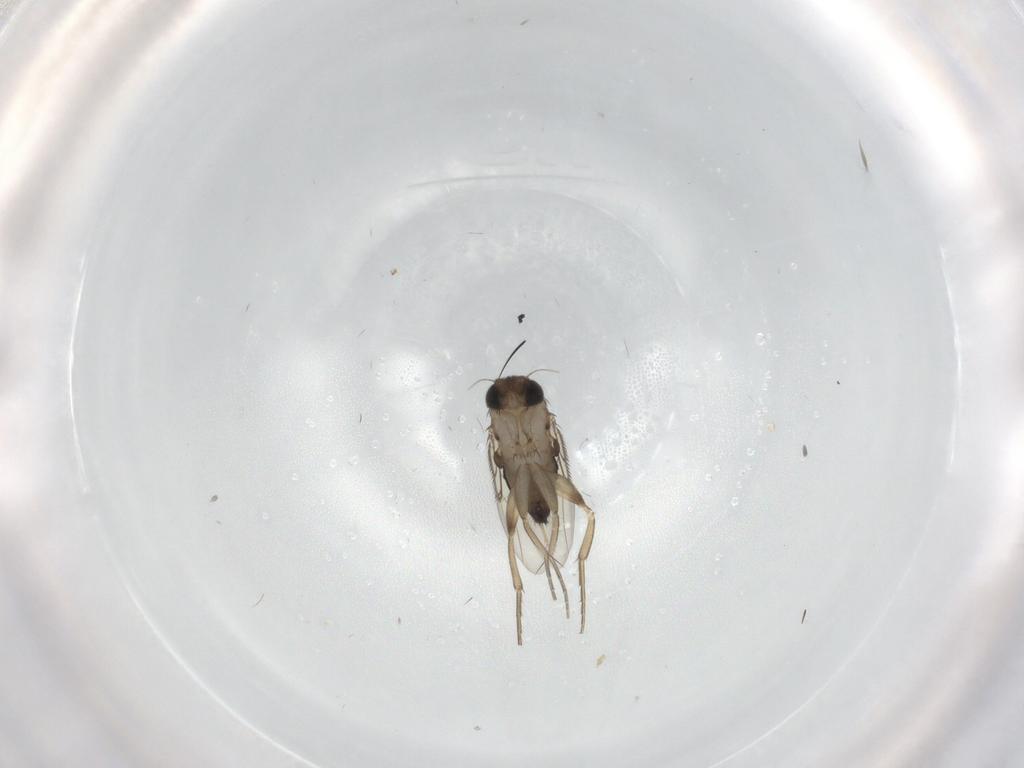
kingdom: Animalia
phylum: Arthropoda
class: Insecta
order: Diptera
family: Phoridae
